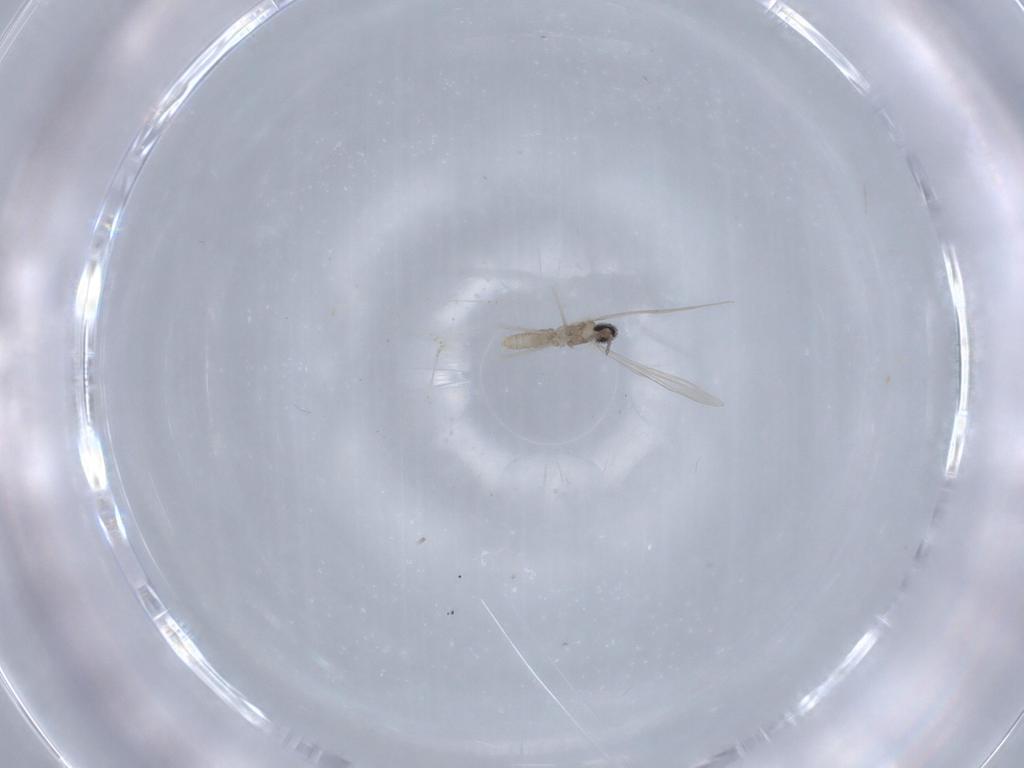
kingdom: Animalia
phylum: Arthropoda
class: Insecta
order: Diptera
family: Sciaridae
